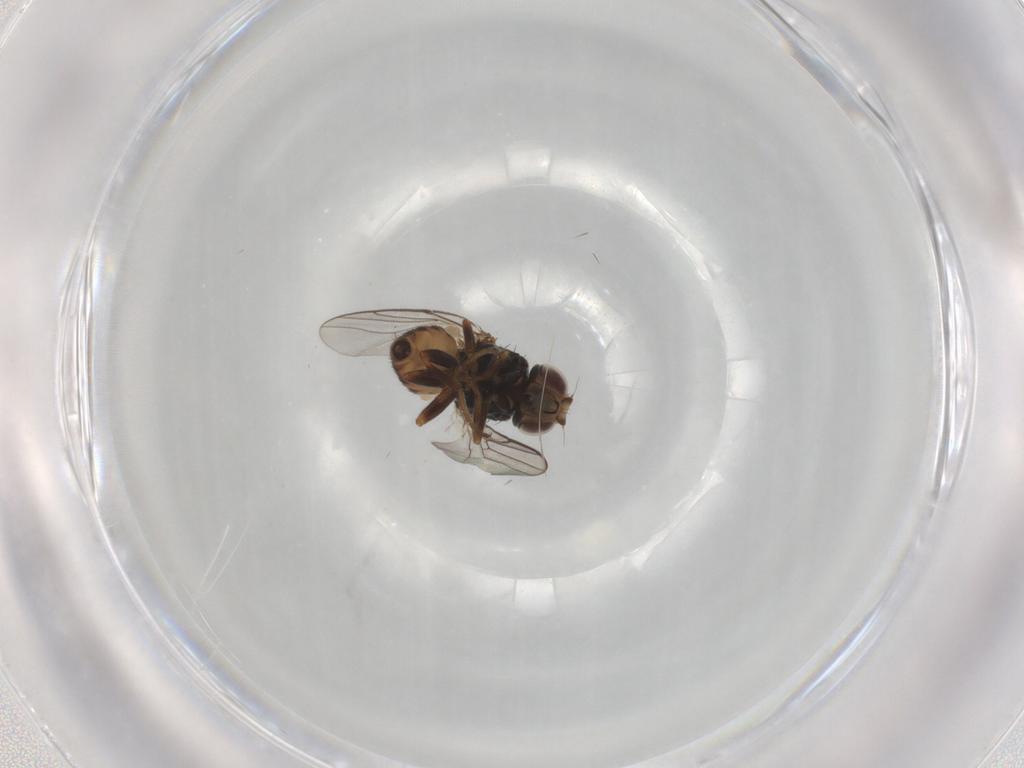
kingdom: Animalia
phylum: Arthropoda
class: Insecta
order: Diptera
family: Chloropidae
